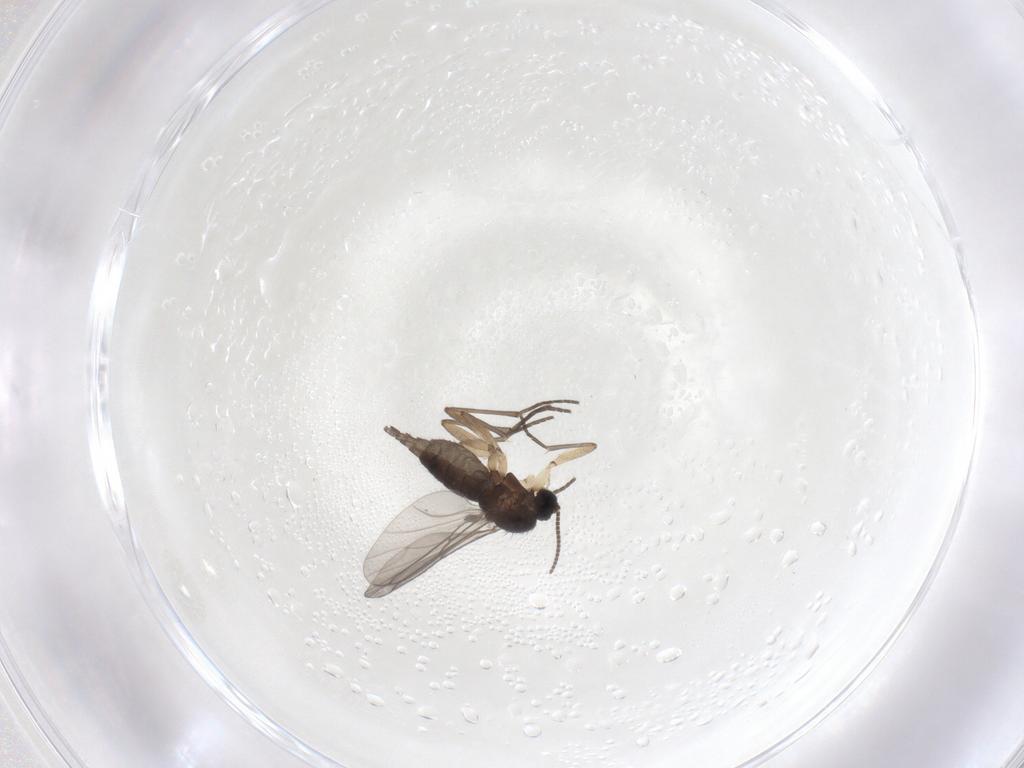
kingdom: Animalia
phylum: Arthropoda
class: Insecta
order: Diptera
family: Sciaridae
